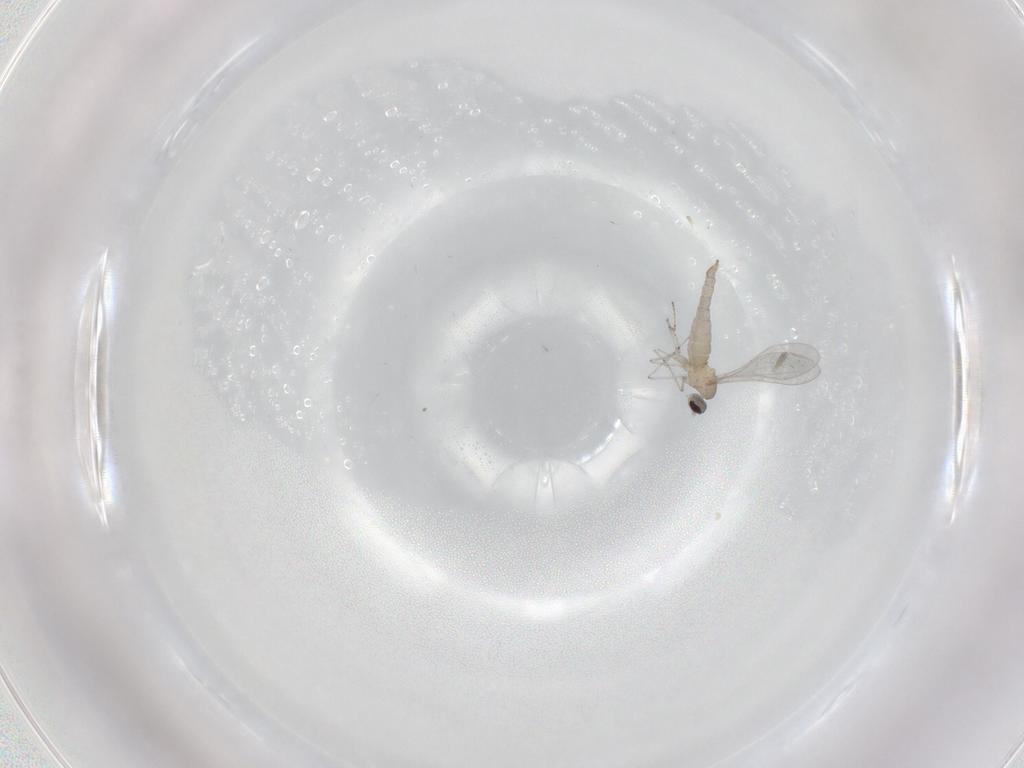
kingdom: Animalia
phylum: Arthropoda
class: Insecta
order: Diptera
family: Cecidomyiidae
